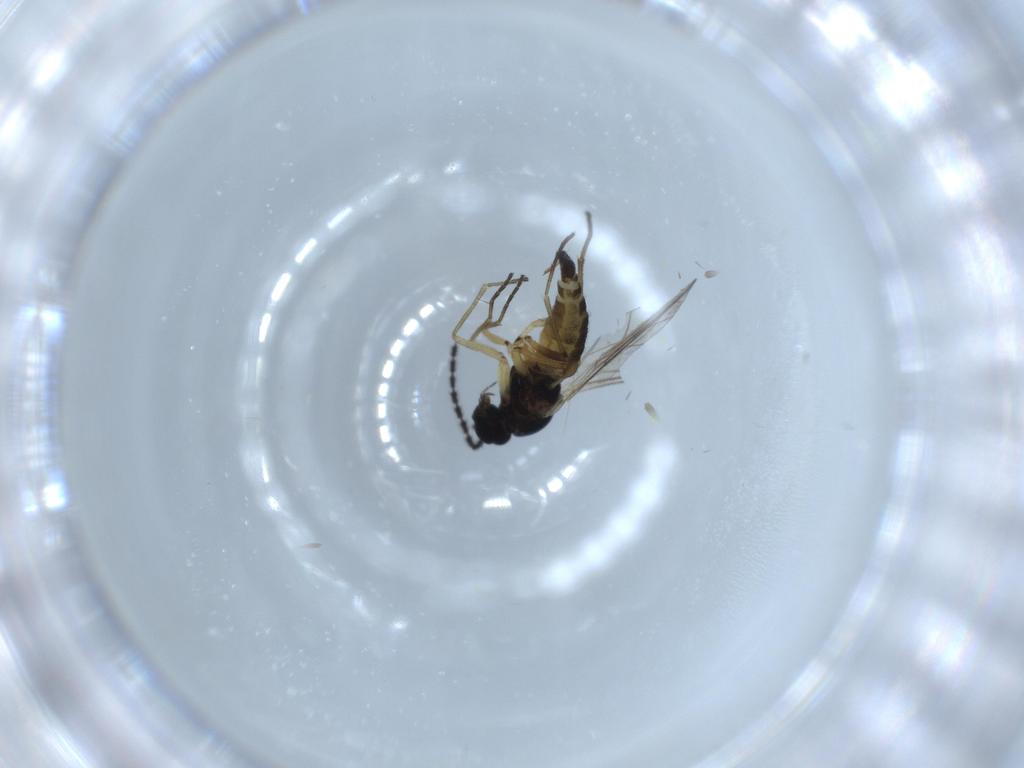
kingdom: Animalia
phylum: Arthropoda
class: Insecta
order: Diptera
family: Sciaridae
